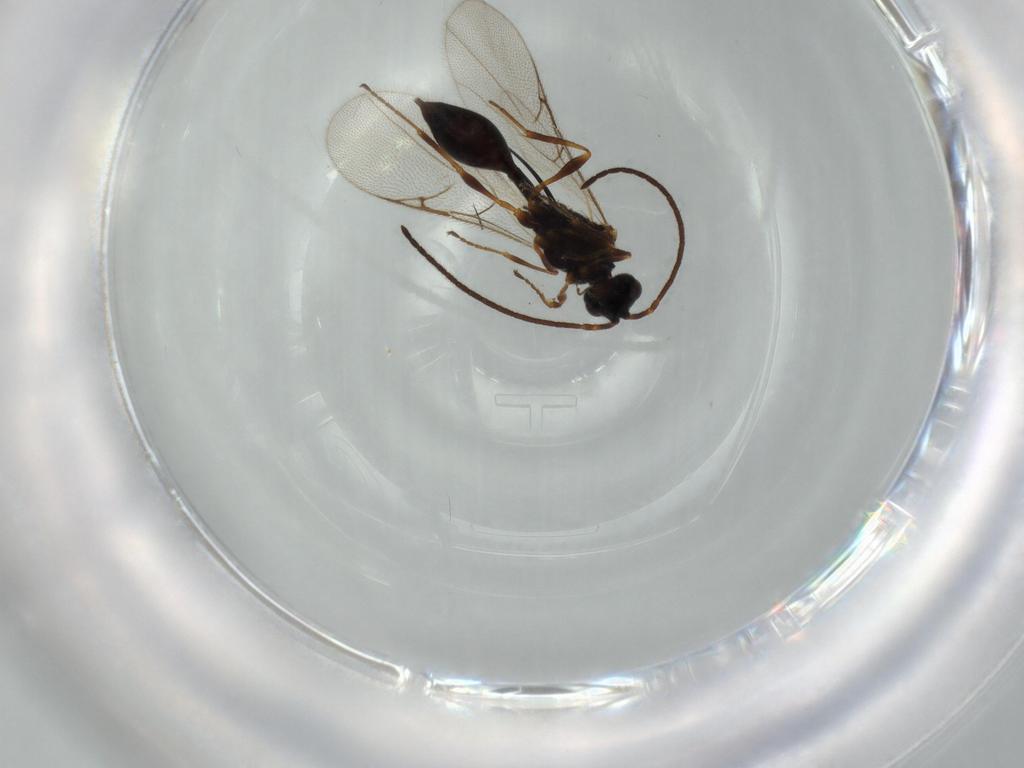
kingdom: Animalia
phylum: Arthropoda
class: Insecta
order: Hymenoptera
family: Diapriidae
